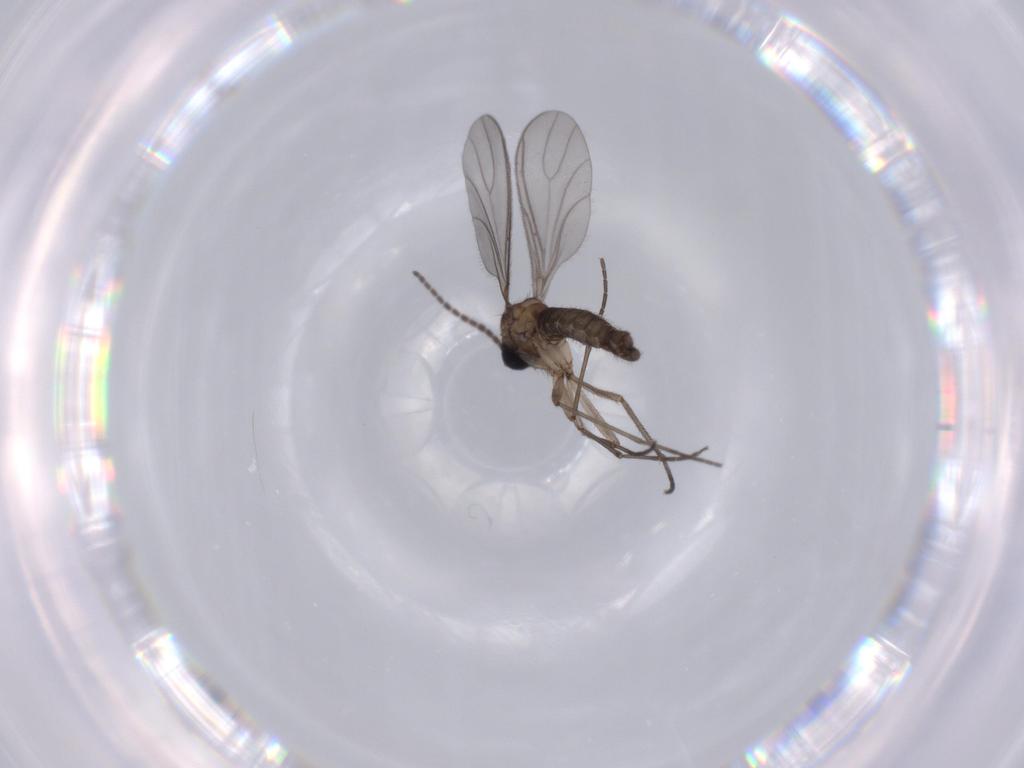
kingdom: Animalia
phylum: Arthropoda
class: Insecta
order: Diptera
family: Sciaridae
